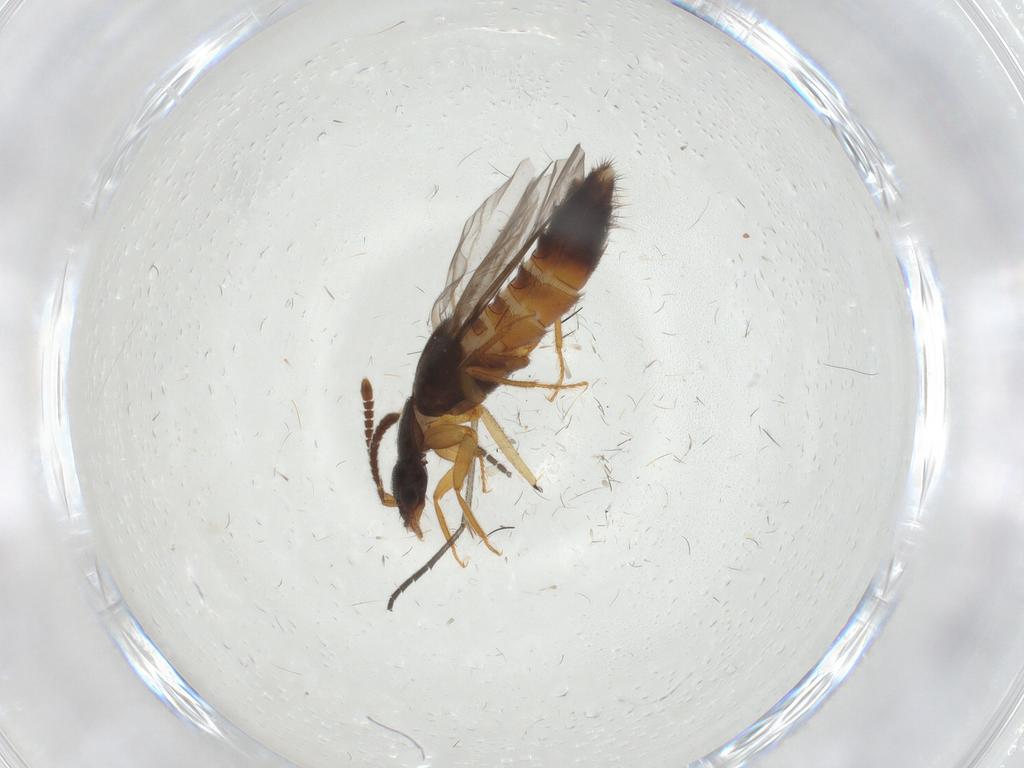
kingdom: Animalia
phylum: Arthropoda
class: Insecta
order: Coleoptera
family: Staphylinidae
